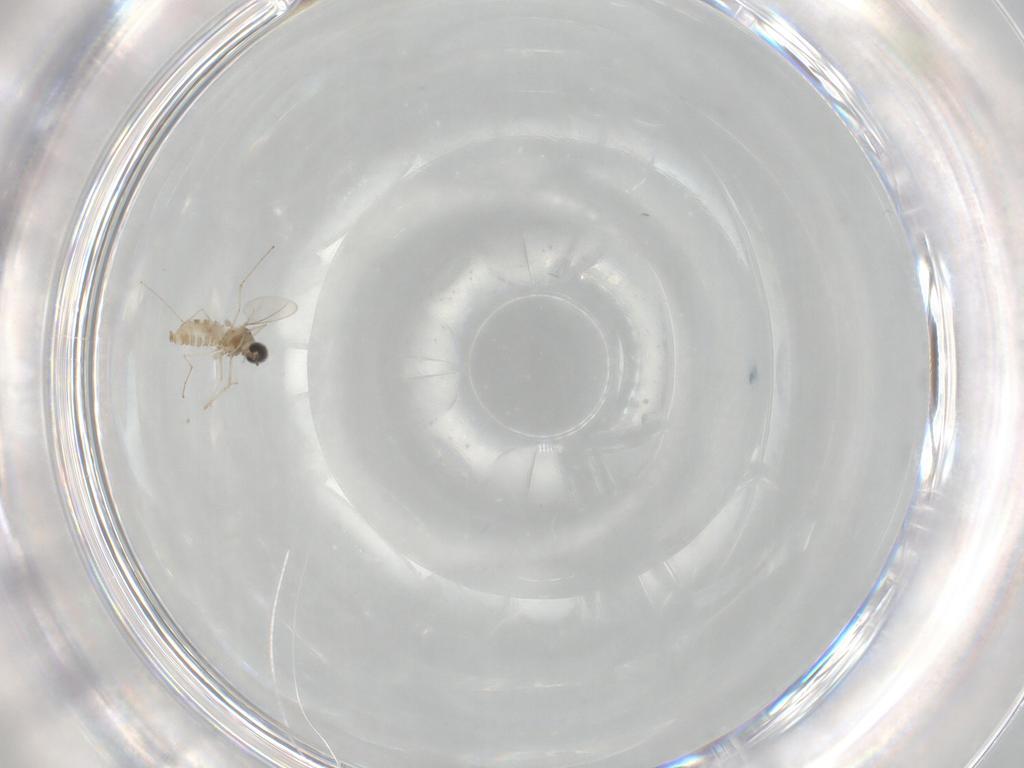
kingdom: Animalia
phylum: Arthropoda
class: Insecta
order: Diptera
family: Cecidomyiidae
